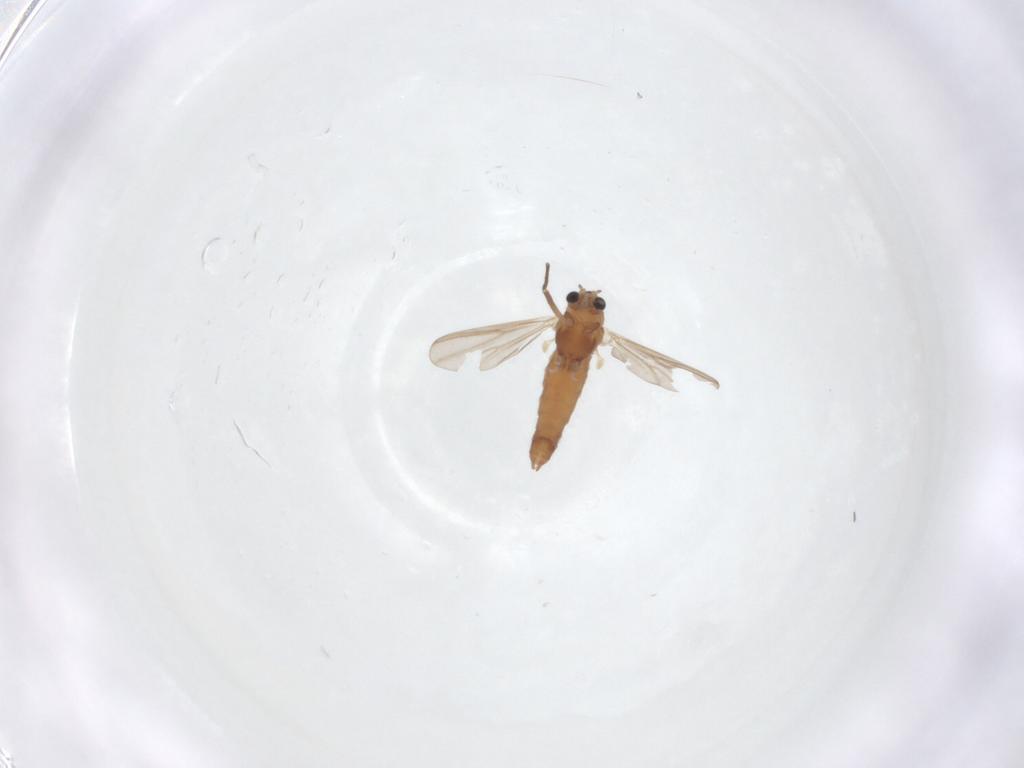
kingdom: Animalia
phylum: Arthropoda
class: Insecta
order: Diptera
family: Chironomidae
